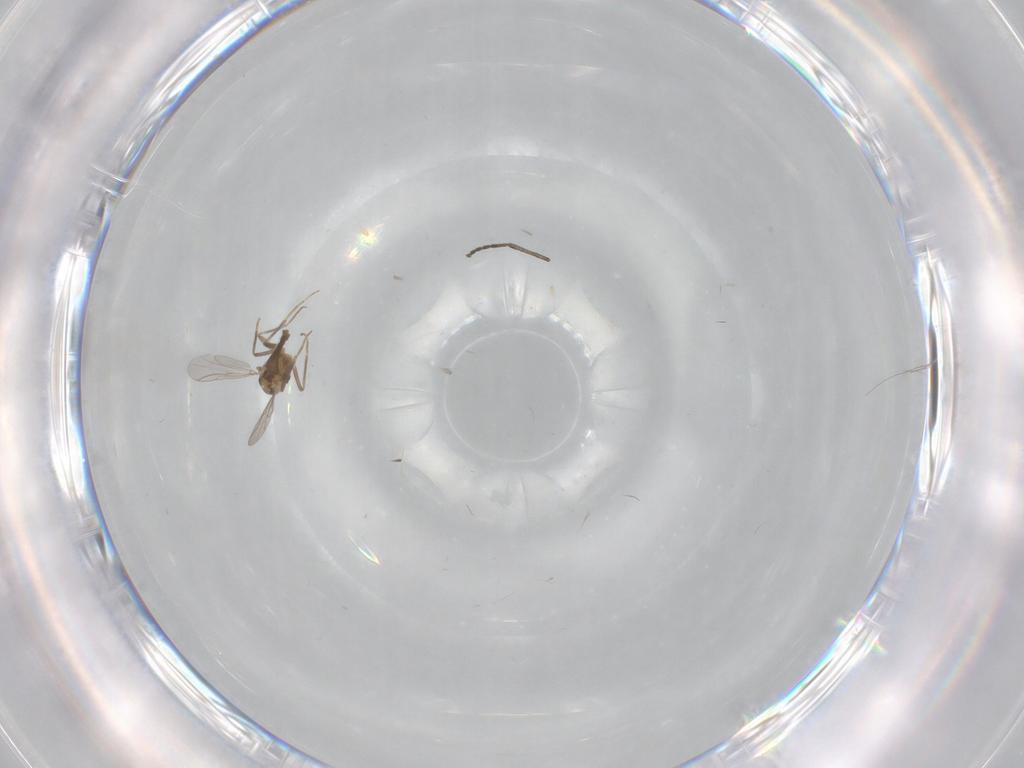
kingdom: Animalia
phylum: Arthropoda
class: Insecta
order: Diptera
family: Chironomidae
